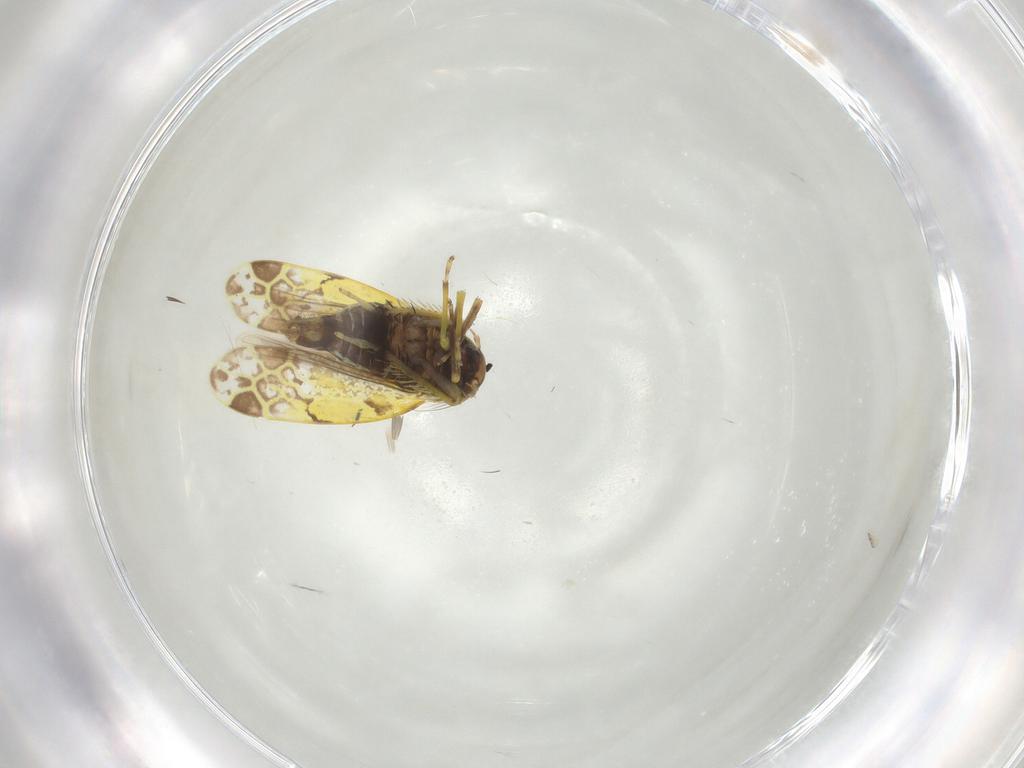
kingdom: Animalia
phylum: Arthropoda
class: Insecta
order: Hemiptera
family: Cicadellidae
